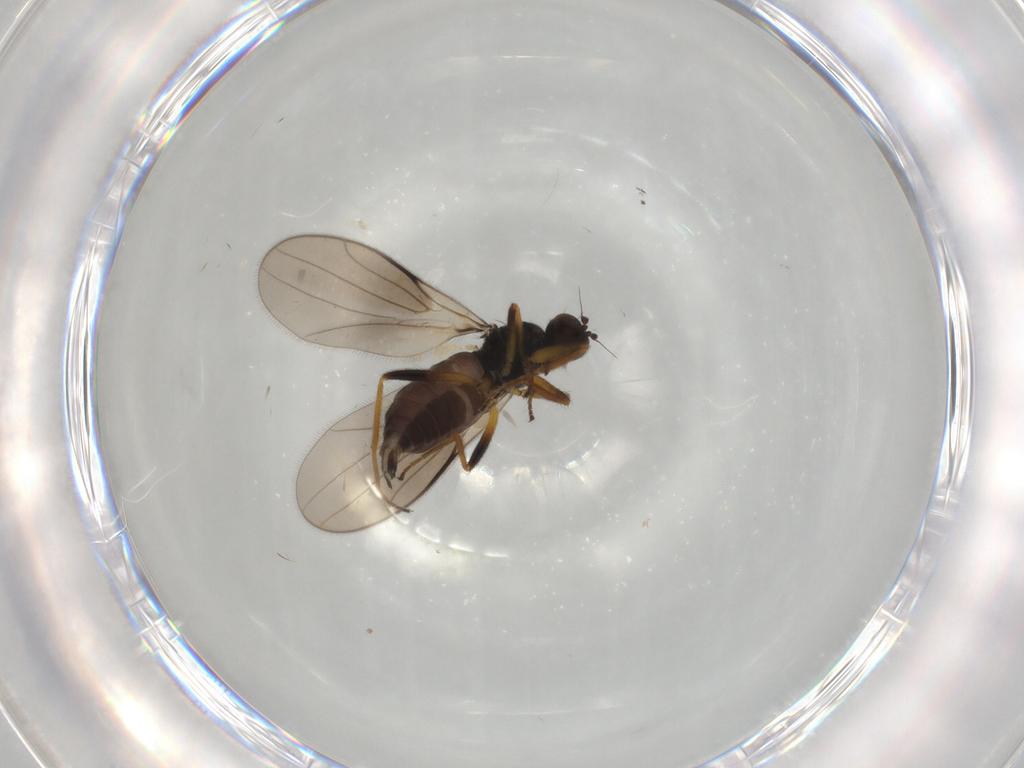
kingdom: Animalia
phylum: Arthropoda
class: Insecta
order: Diptera
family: Hybotidae
